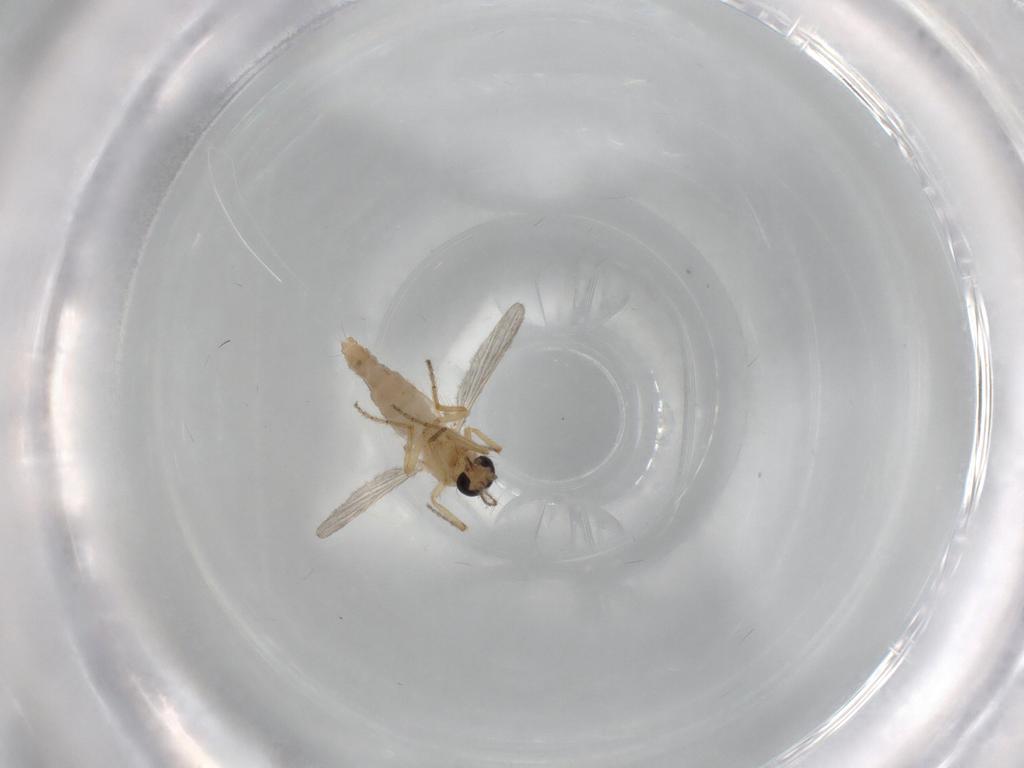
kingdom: Animalia
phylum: Arthropoda
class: Insecta
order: Diptera
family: Ceratopogonidae
